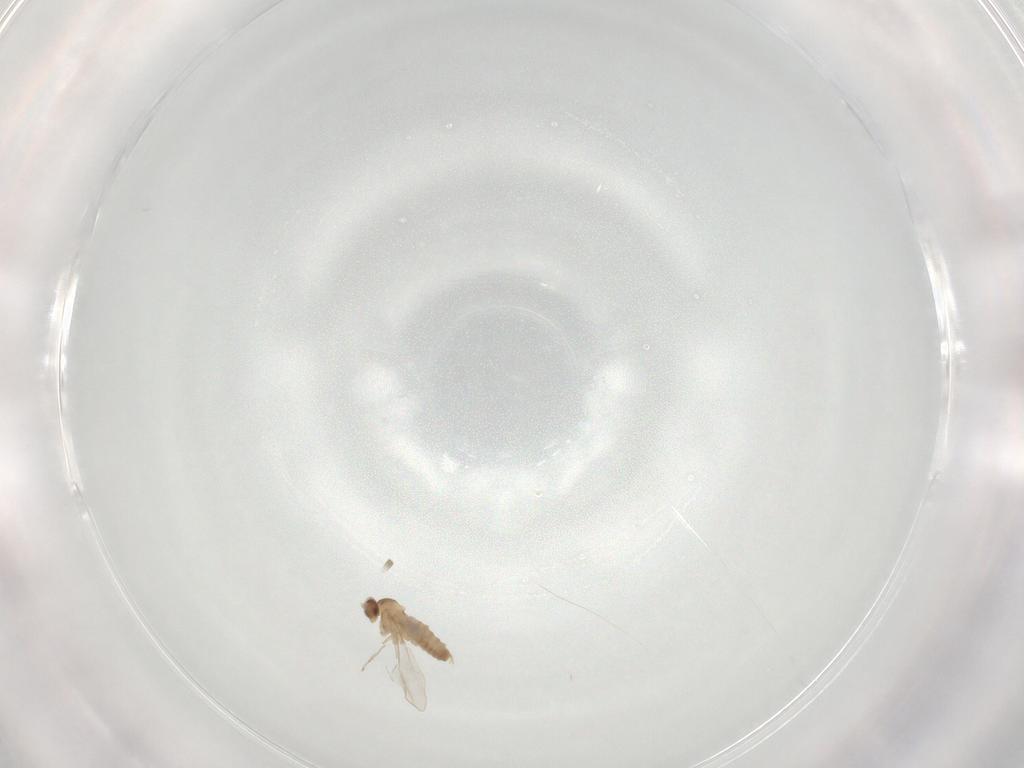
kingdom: Animalia
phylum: Arthropoda
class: Insecta
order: Diptera
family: Cecidomyiidae
